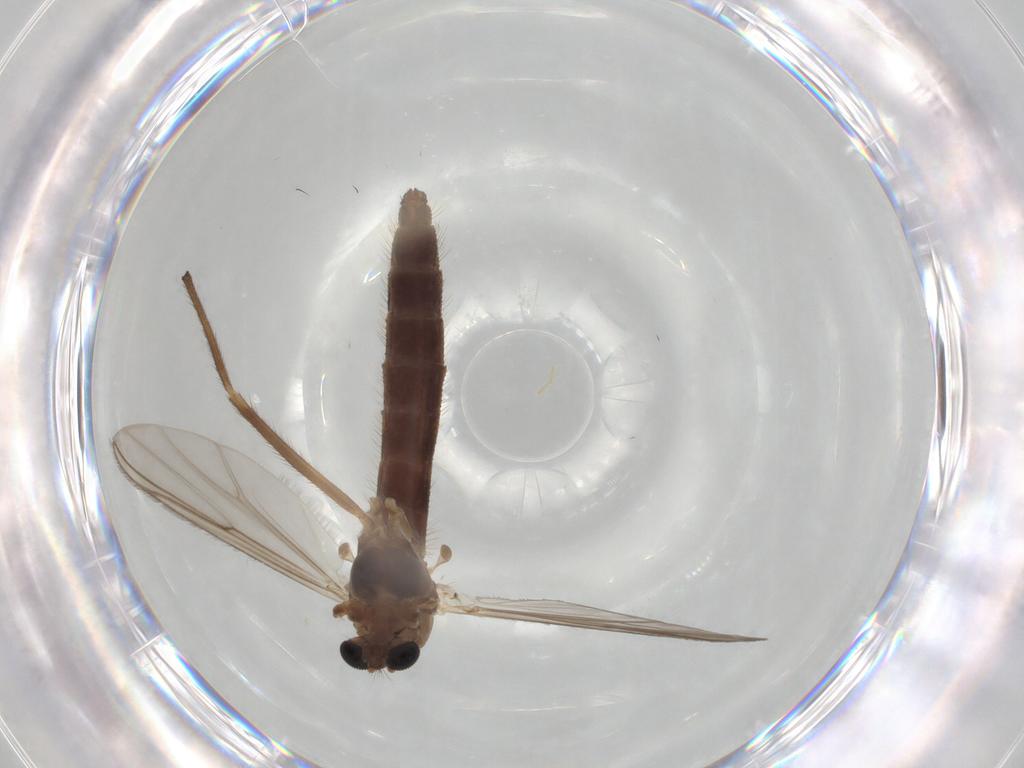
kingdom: Animalia
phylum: Arthropoda
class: Insecta
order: Diptera
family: Chironomidae
